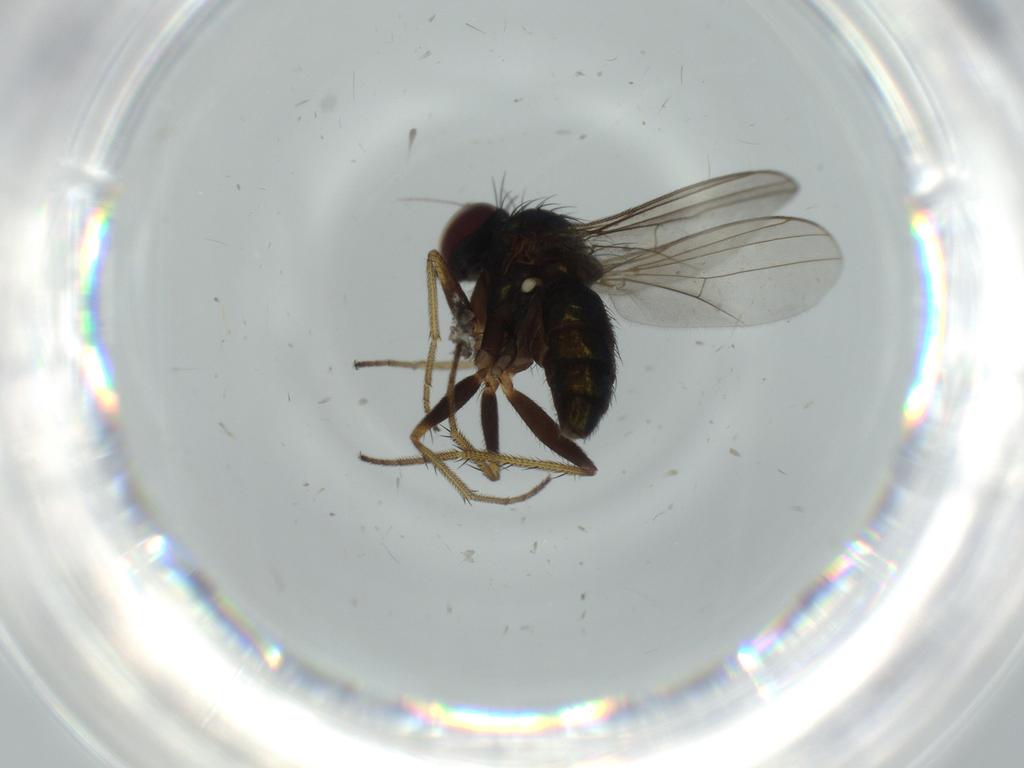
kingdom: Animalia
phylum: Arthropoda
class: Insecta
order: Diptera
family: Cecidomyiidae
